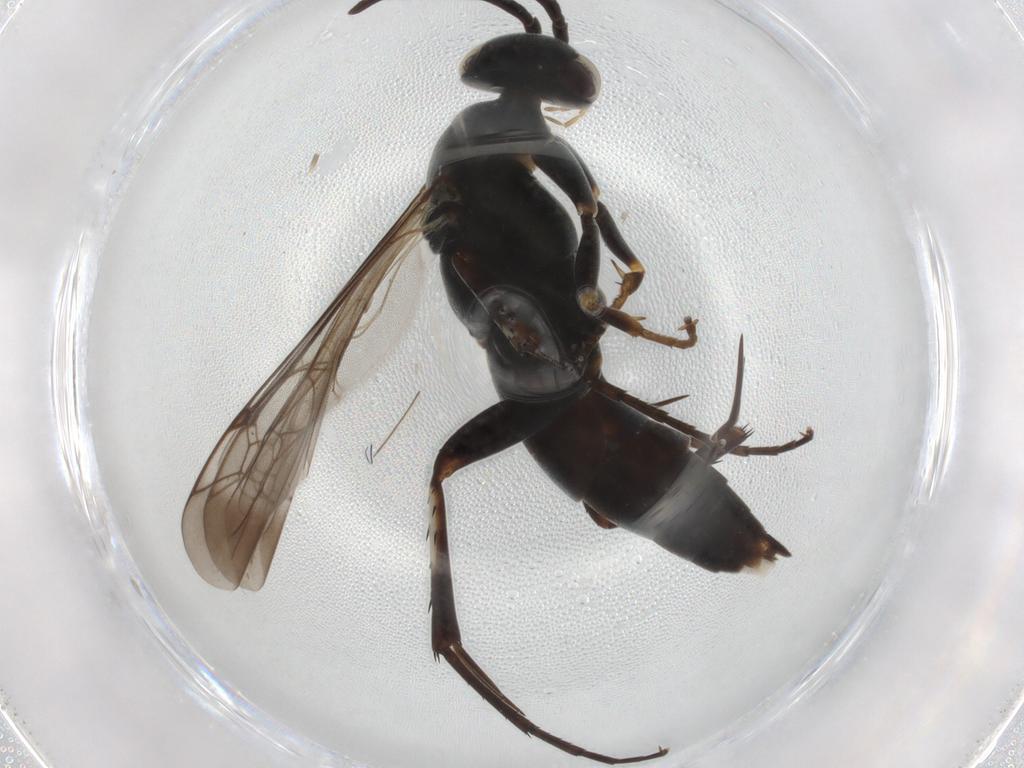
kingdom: Animalia
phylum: Arthropoda
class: Insecta
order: Hymenoptera
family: Pompilidae
